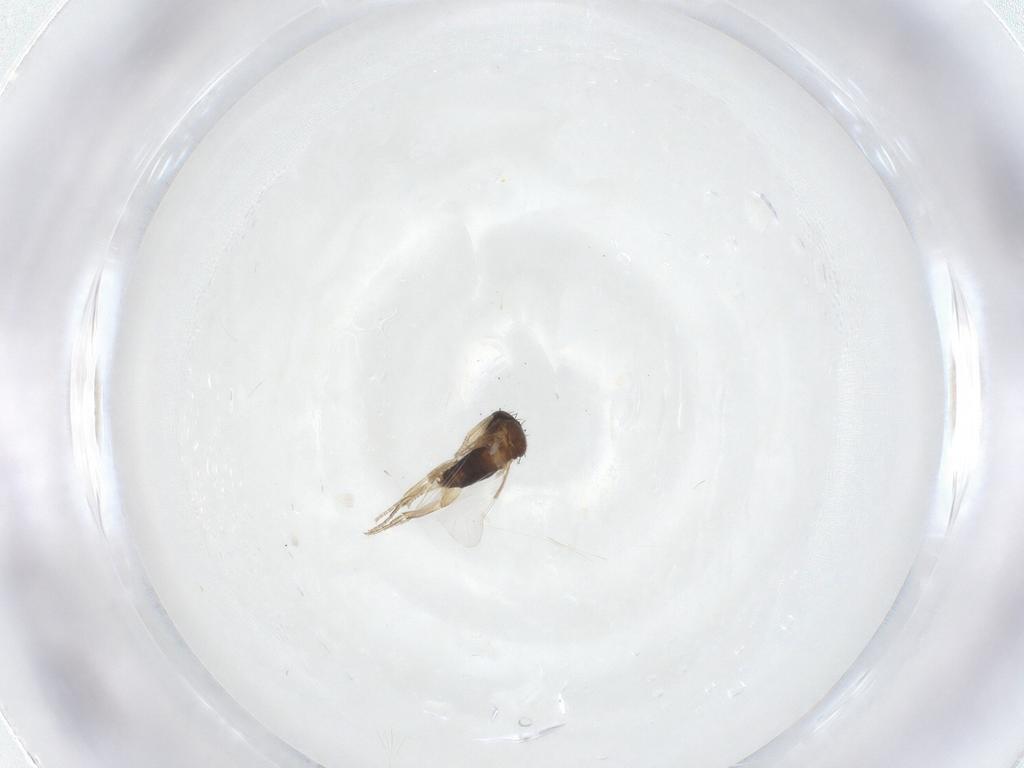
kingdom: Animalia
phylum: Arthropoda
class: Insecta
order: Diptera
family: Phoridae
